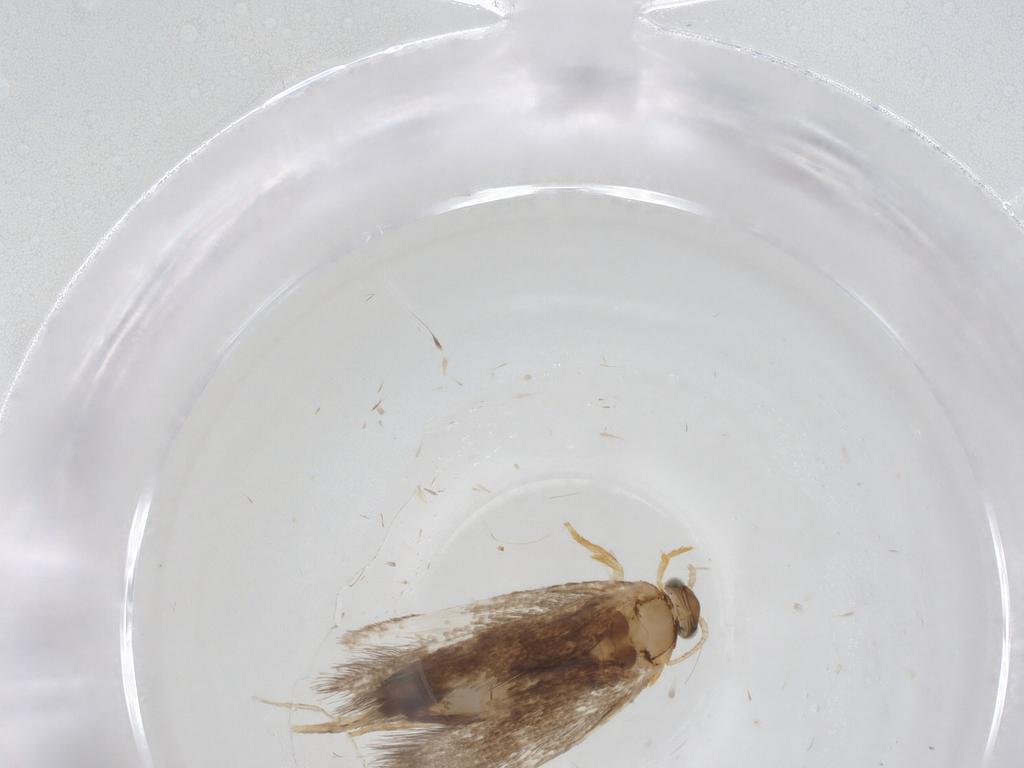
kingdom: Animalia
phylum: Arthropoda
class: Insecta
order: Lepidoptera
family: Dryadaulidae
